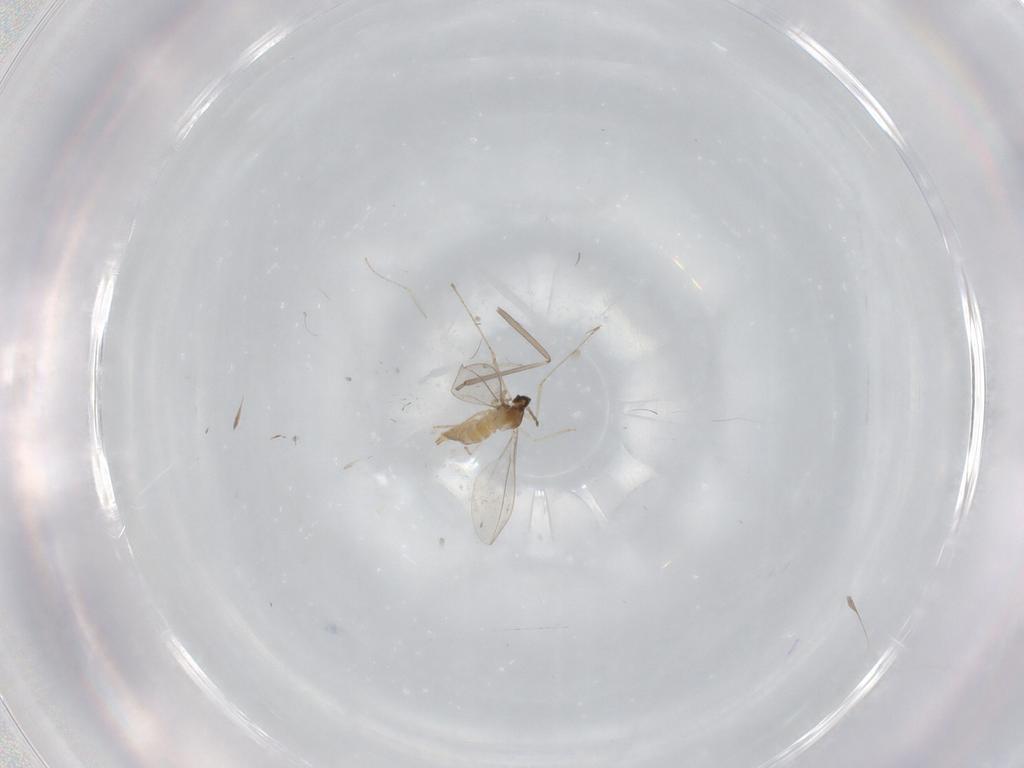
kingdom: Animalia
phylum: Arthropoda
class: Insecta
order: Diptera
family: Cecidomyiidae
